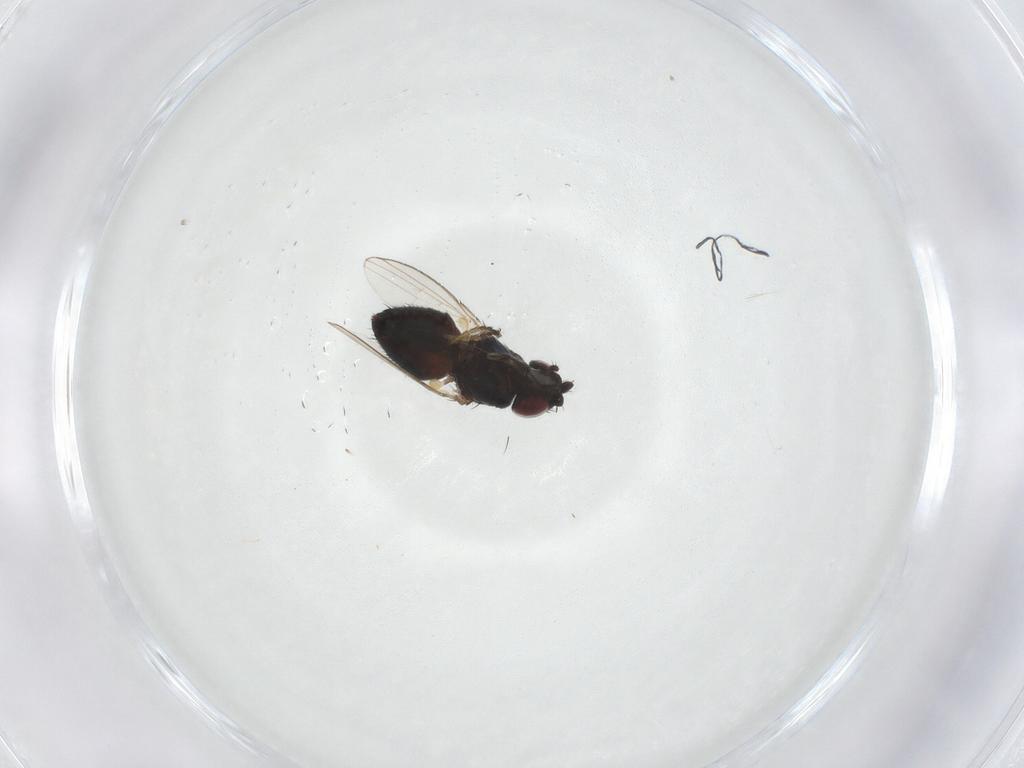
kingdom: Animalia
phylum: Arthropoda
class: Insecta
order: Diptera
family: Milichiidae
